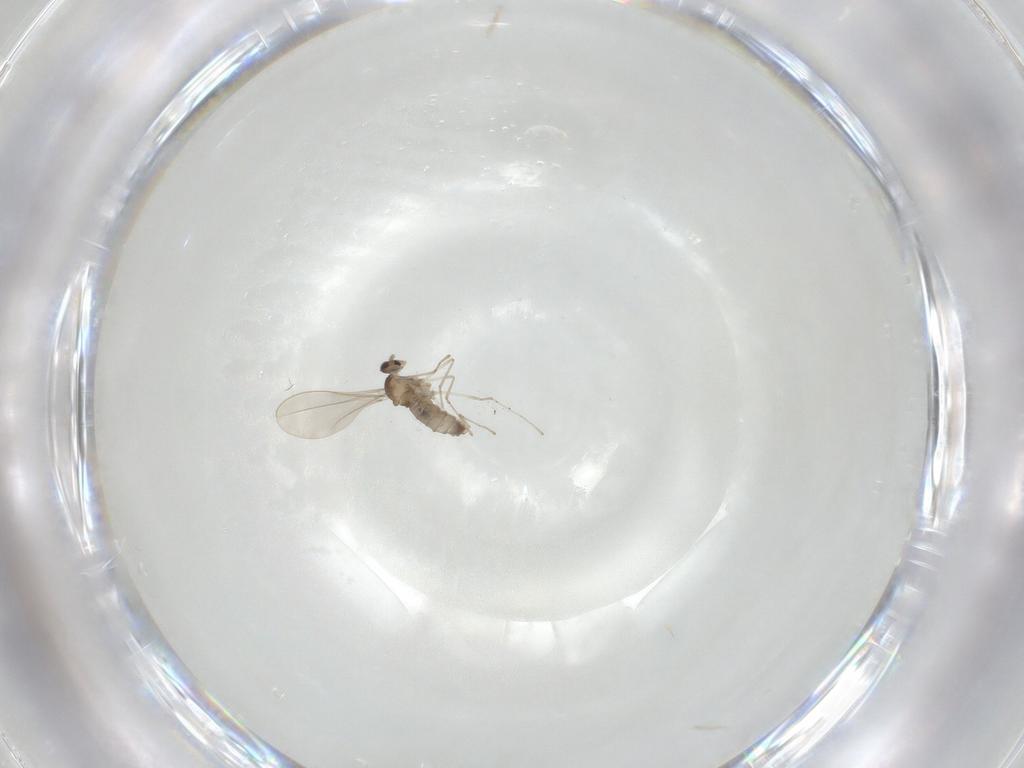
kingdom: Animalia
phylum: Arthropoda
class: Insecta
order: Diptera
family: Cecidomyiidae
